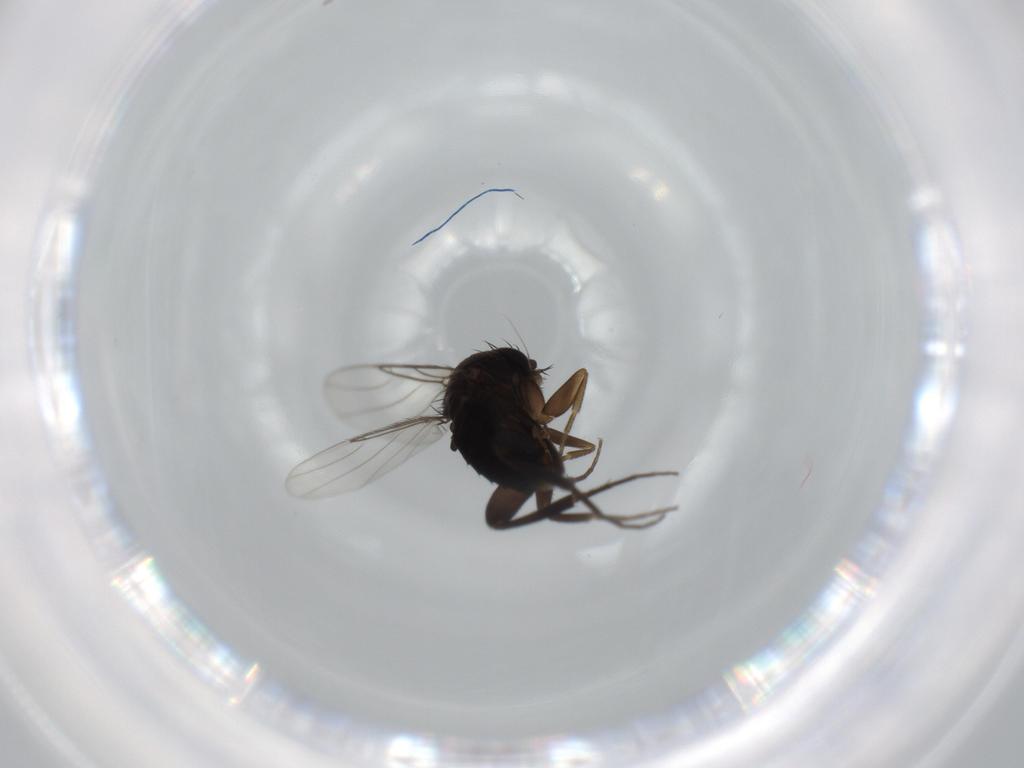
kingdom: Animalia
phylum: Arthropoda
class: Insecta
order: Diptera
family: Phoridae
